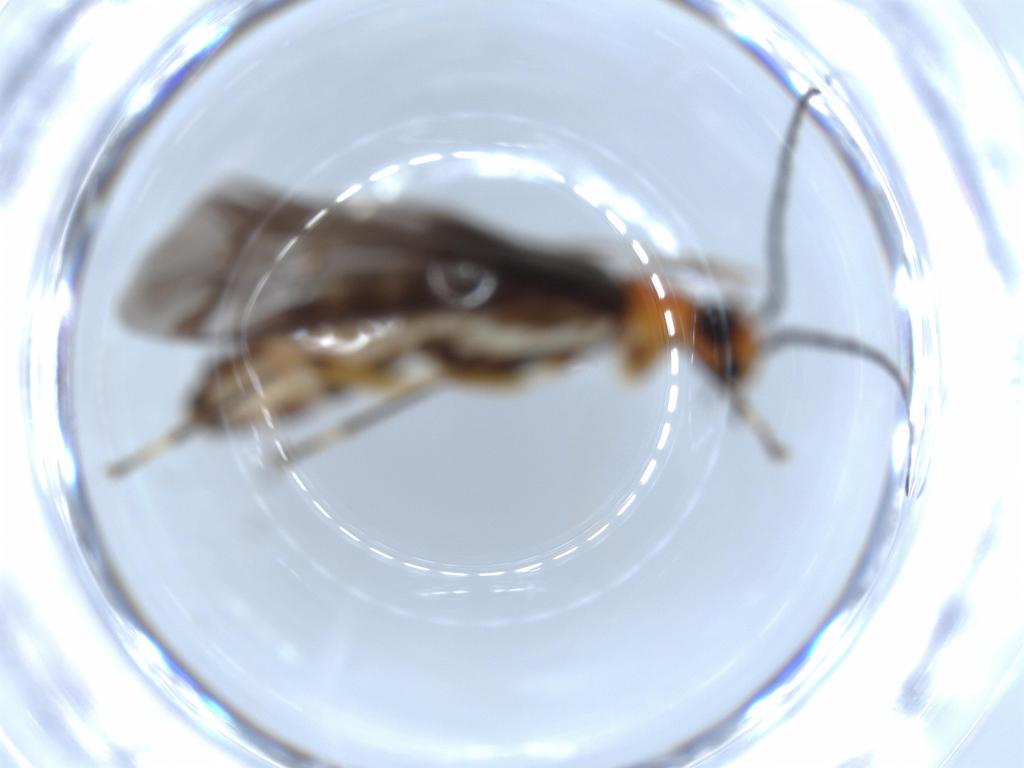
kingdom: Animalia
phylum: Arthropoda
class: Insecta
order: Coleoptera
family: Cantharidae
